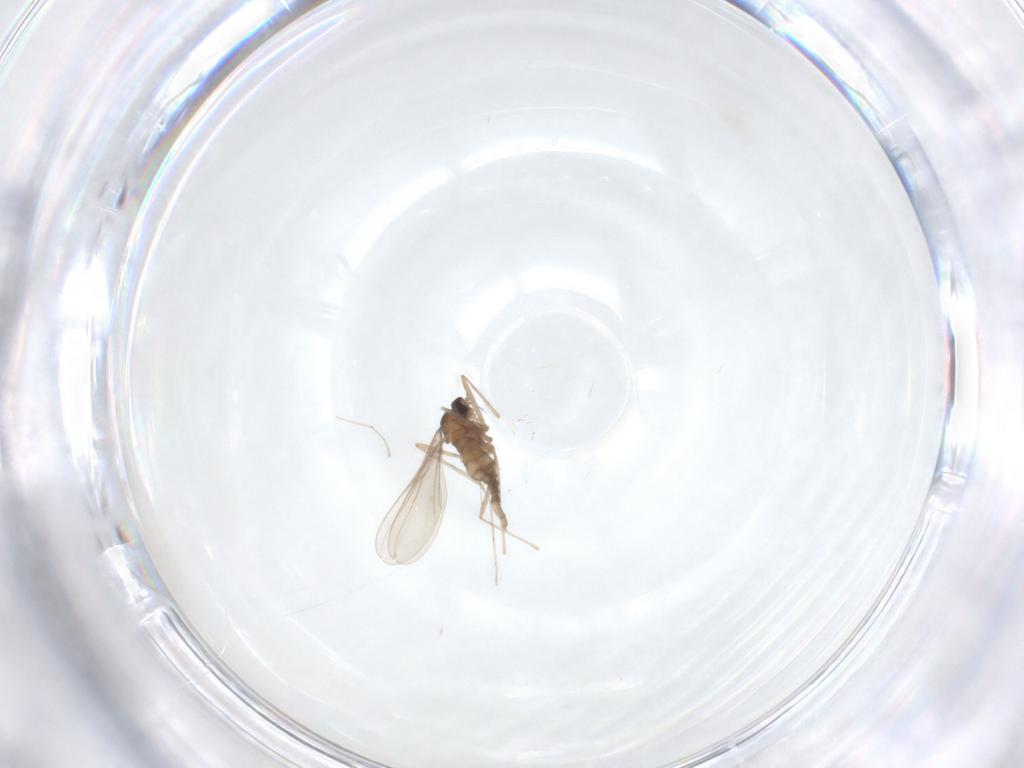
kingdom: Animalia
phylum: Arthropoda
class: Insecta
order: Diptera
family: Cecidomyiidae
